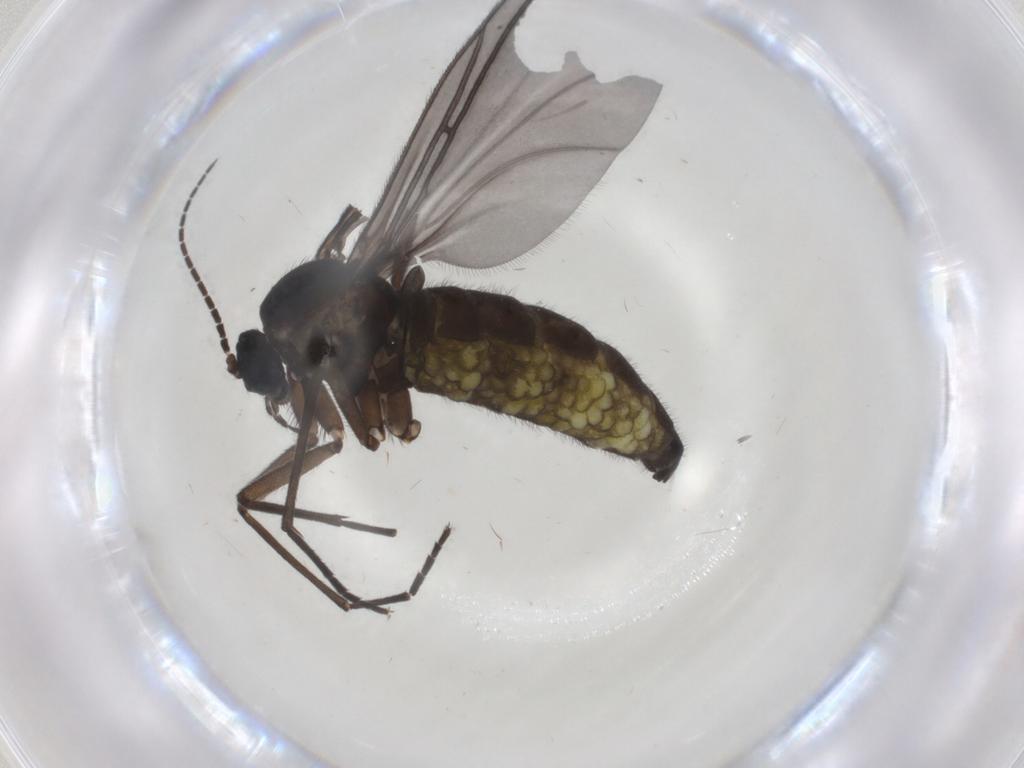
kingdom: Animalia
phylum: Arthropoda
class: Insecta
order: Diptera
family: Sciaridae
